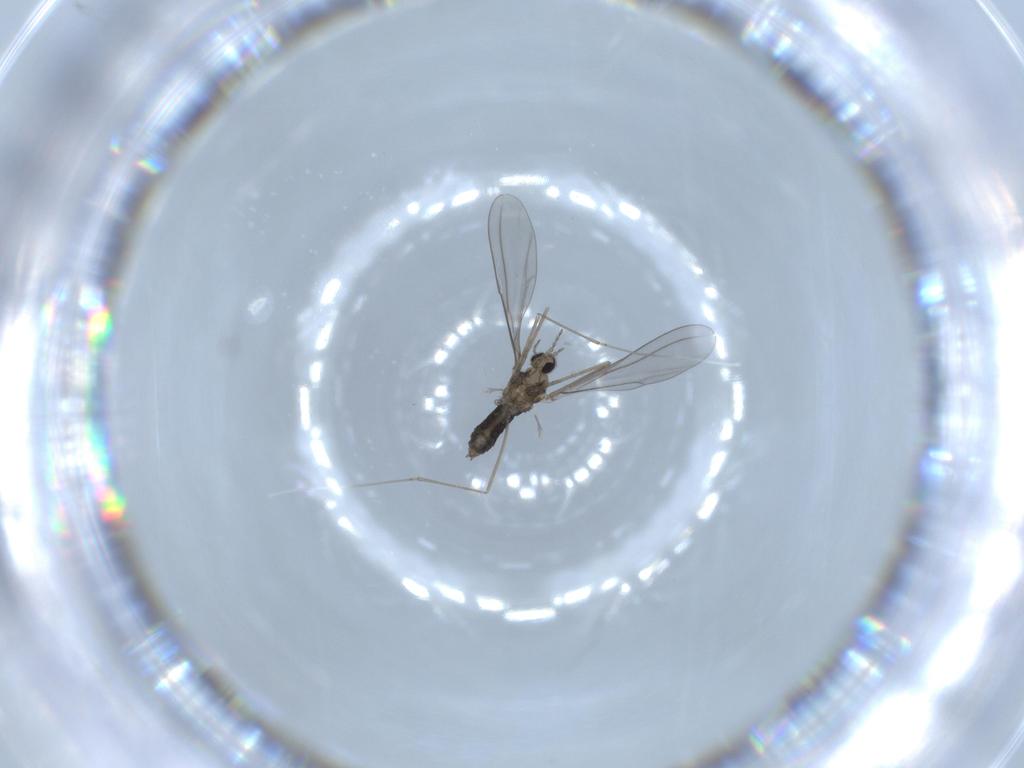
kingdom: Animalia
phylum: Arthropoda
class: Insecta
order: Diptera
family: Cecidomyiidae
